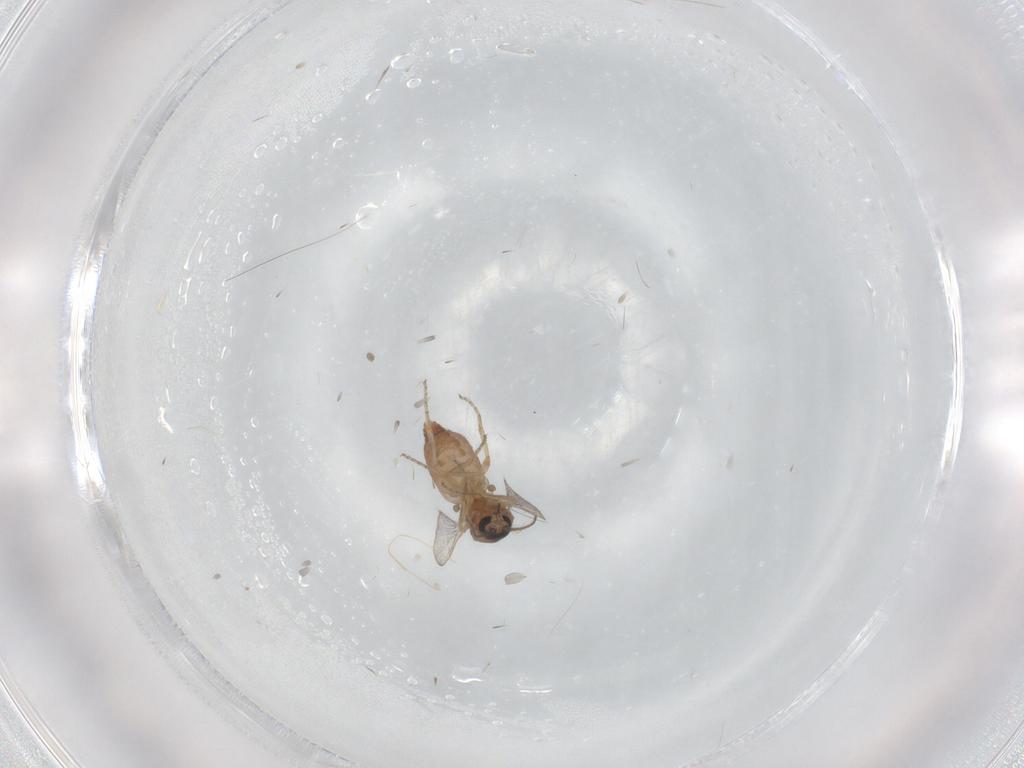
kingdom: Animalia
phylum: Arthropoda
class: Insecta
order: Diptera
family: Ceratopogonidae
